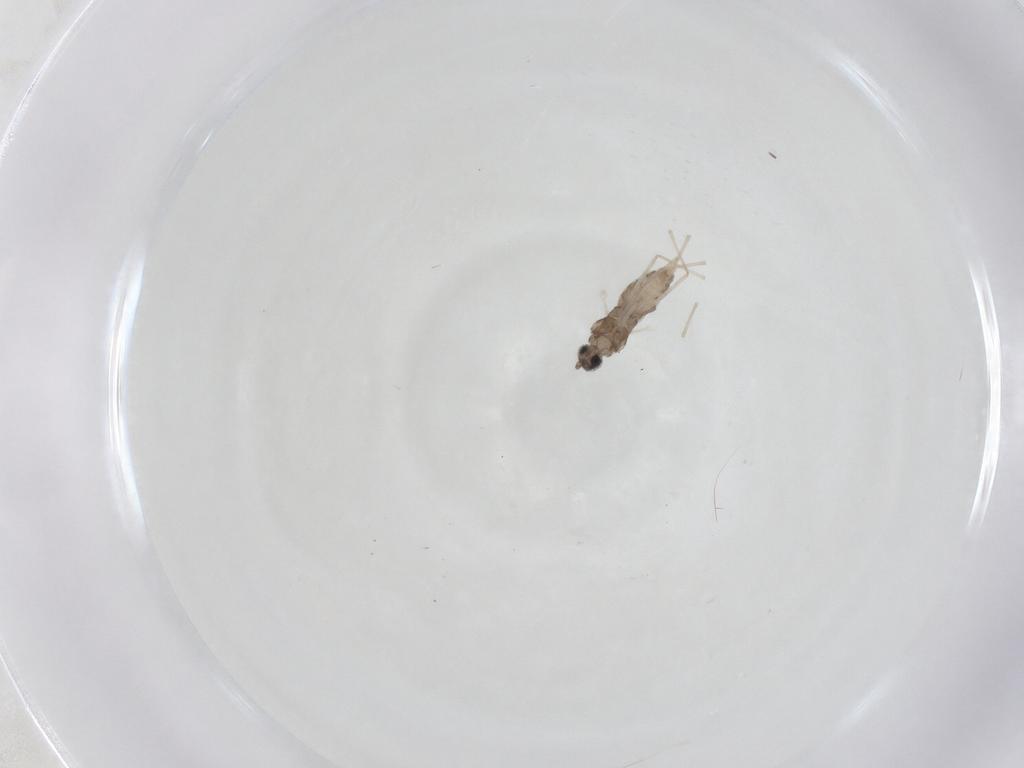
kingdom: Animalia
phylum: Arthropoda
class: Insecta
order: Diptera
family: Cecidomyiidae
